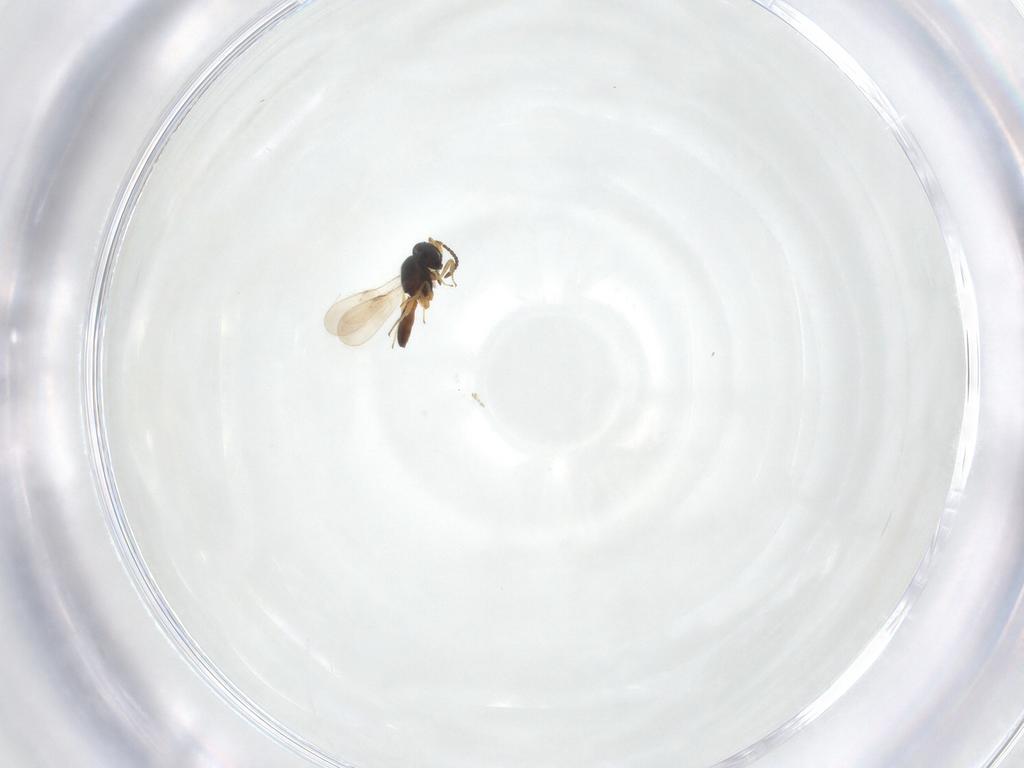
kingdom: Animalia
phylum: Arthropoda
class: Insecta
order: Hymenoptera
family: Scelionidae
